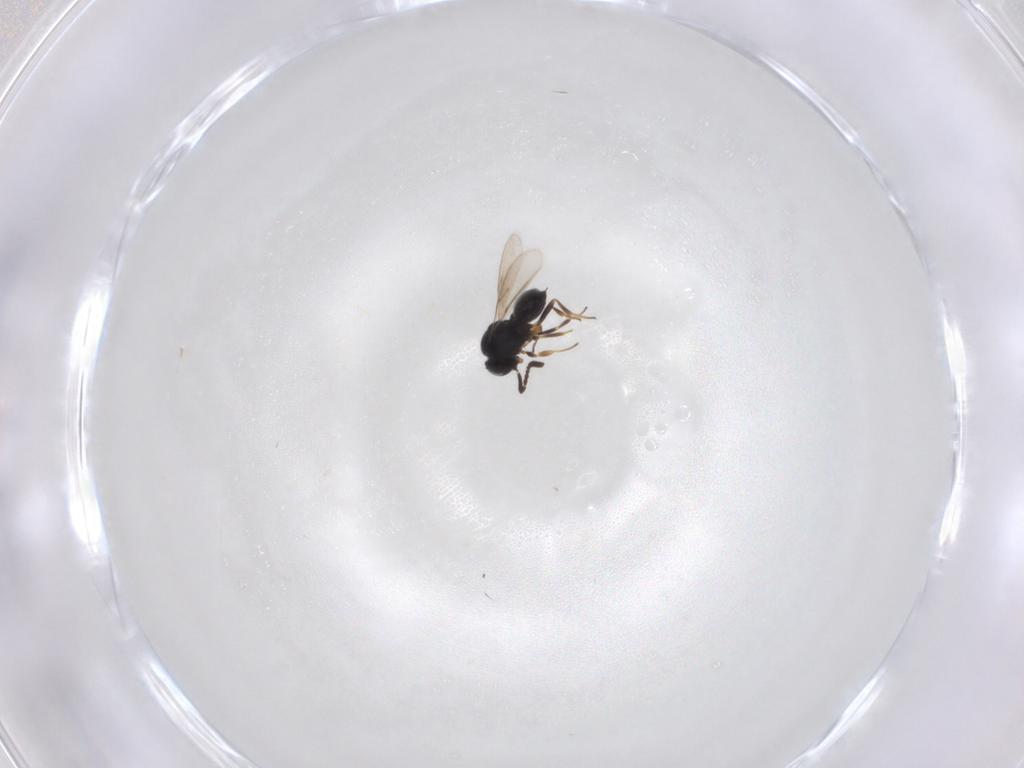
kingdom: Animalia
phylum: Arthropoda
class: Insecta
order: Hymenoptera
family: Scelionidae
